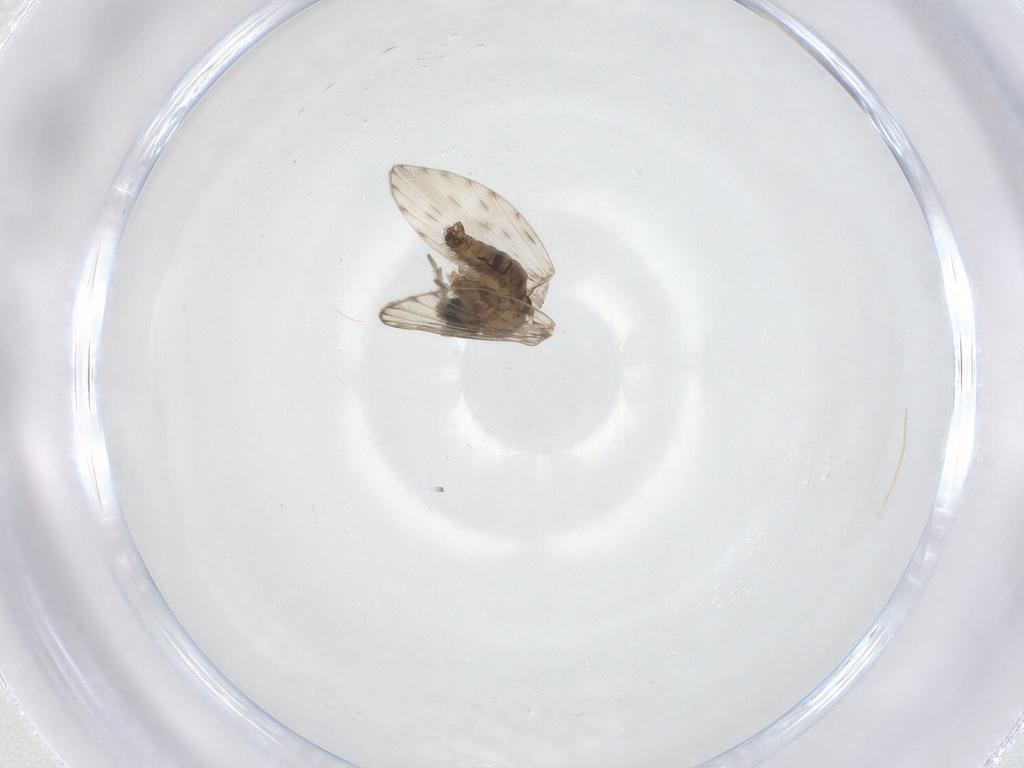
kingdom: Animalia
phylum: Arthropoda
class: Insecta
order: Diptera
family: Psychodidae
